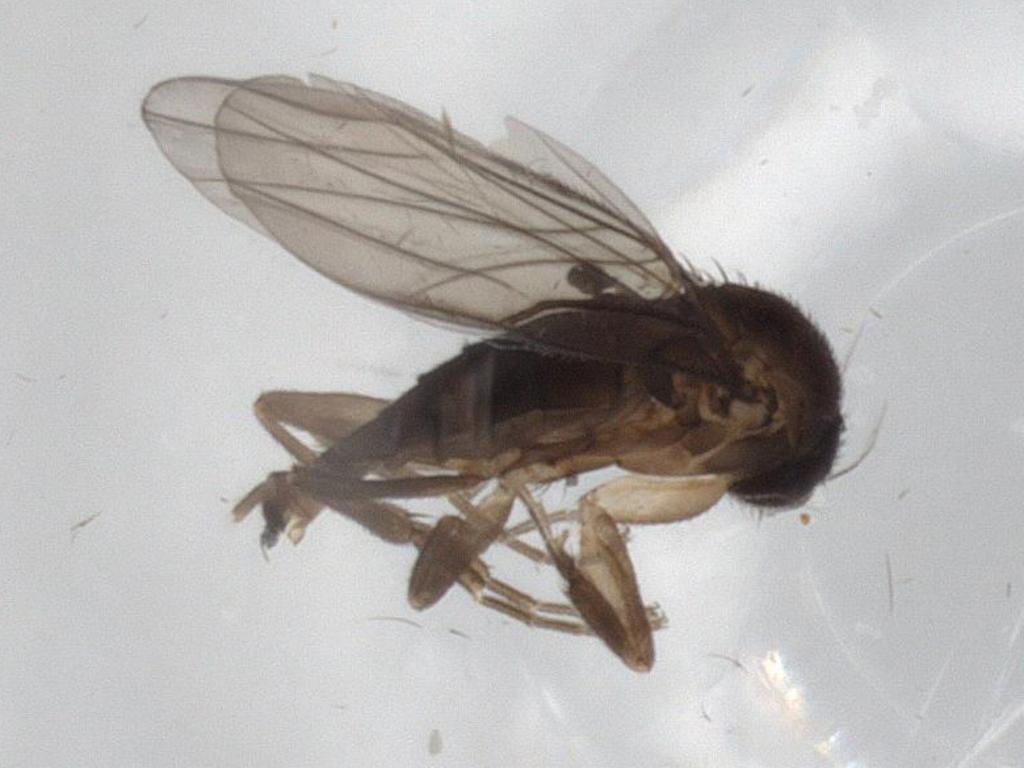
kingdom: Animalia
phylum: Arthropoda
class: Insecta
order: Diptera
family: Phoridae
